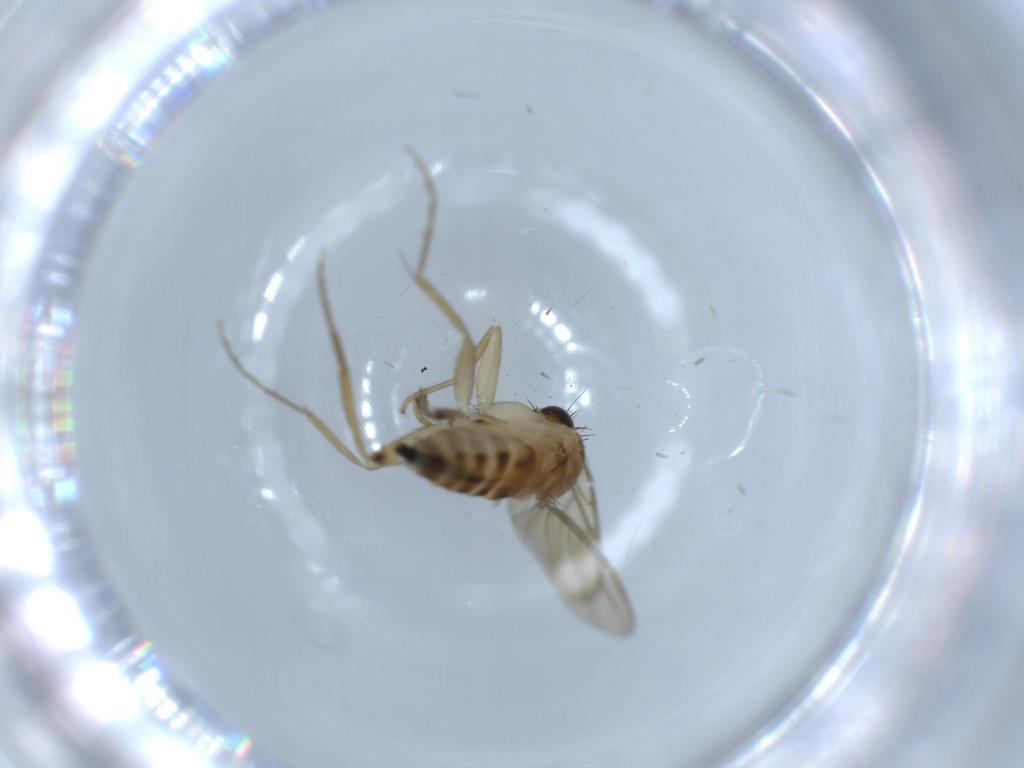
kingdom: Animalia
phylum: Arthropoda
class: Insecta
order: Diptera
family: Phoridae
